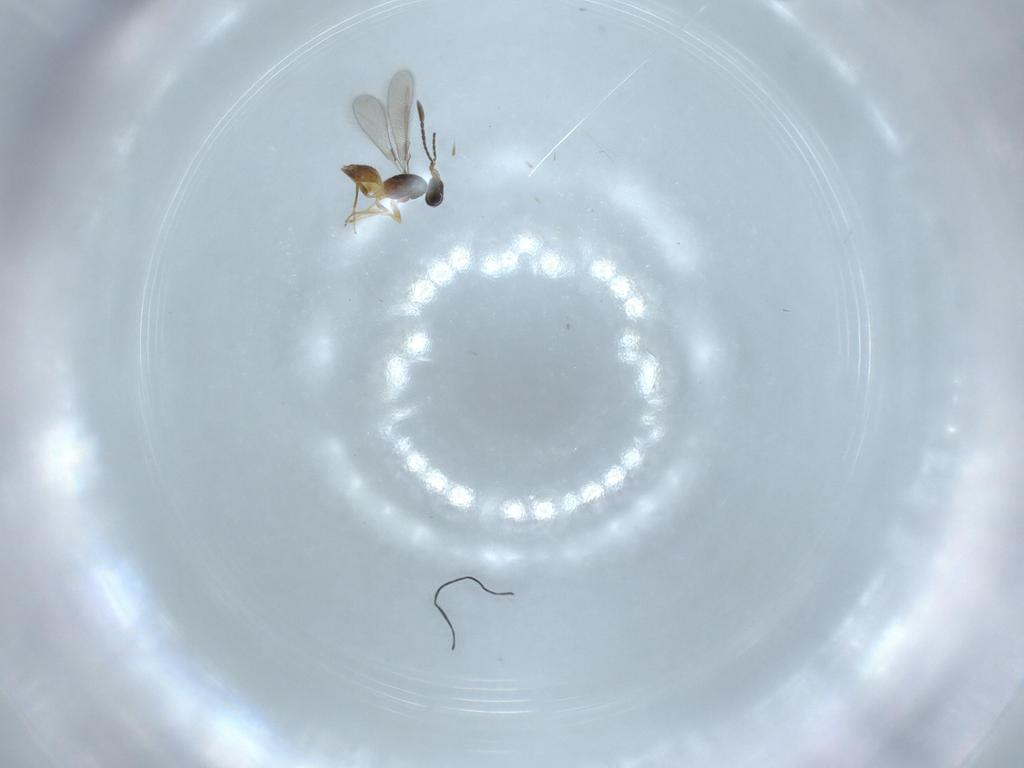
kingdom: Animalia
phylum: Arthropoda
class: Insecta
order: Hymenoptera
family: Mymaridae
